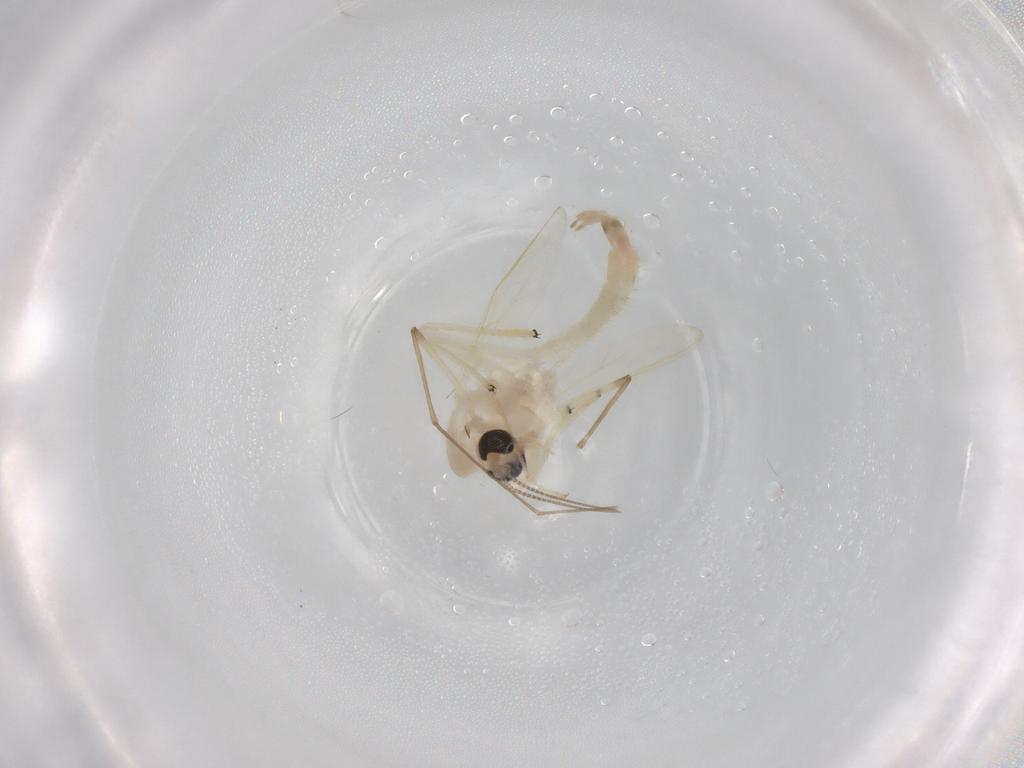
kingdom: Animalia
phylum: Arthropoda
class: Insecta
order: Diptera
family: Chironomidae
